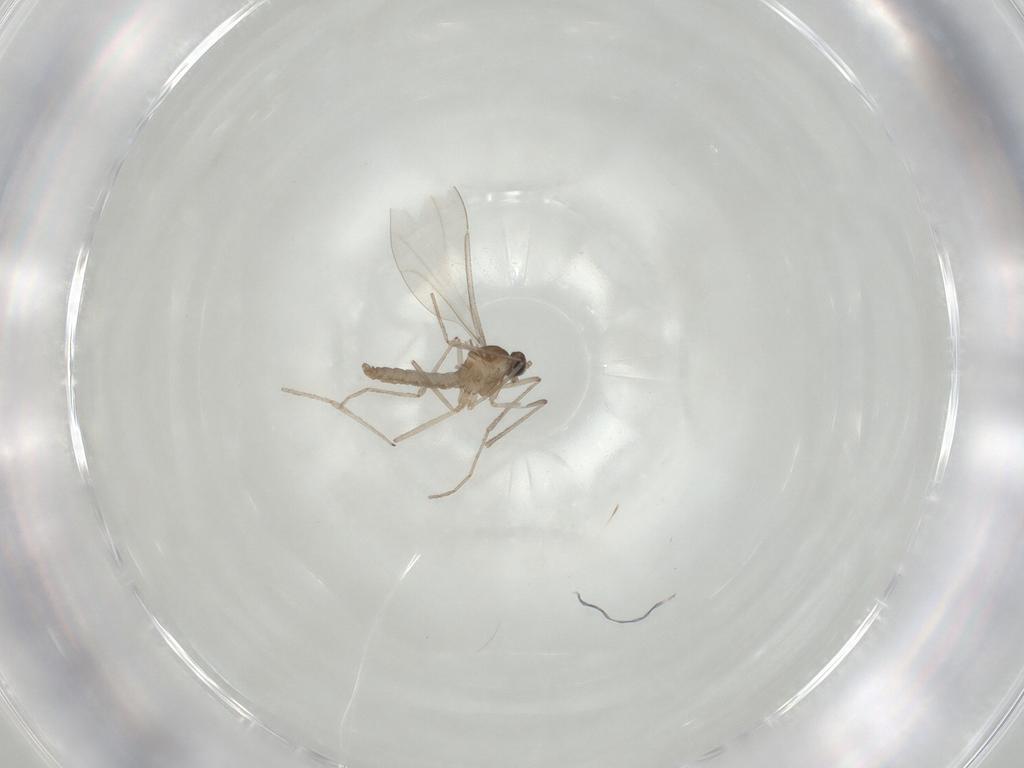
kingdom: Animalia
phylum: Arthropoda
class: Insecta
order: Diptera
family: Cecidomyiidae
